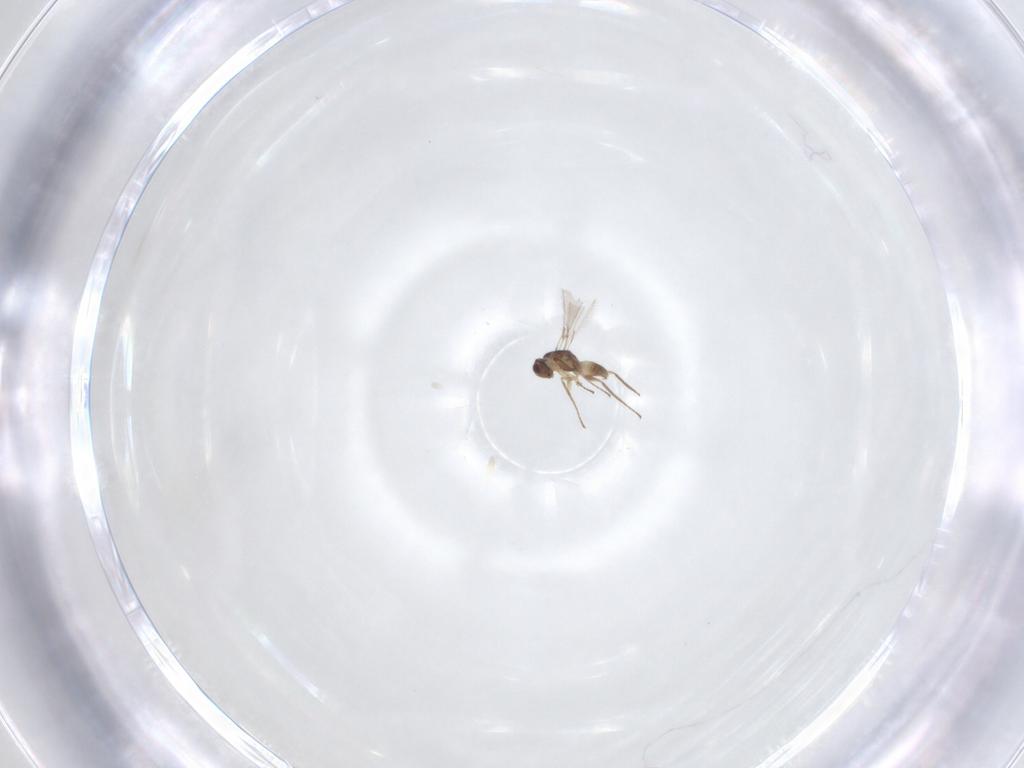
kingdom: Animalia
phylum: Arthropoda
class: Insecta
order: Hymenoptera
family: Mymaridae
